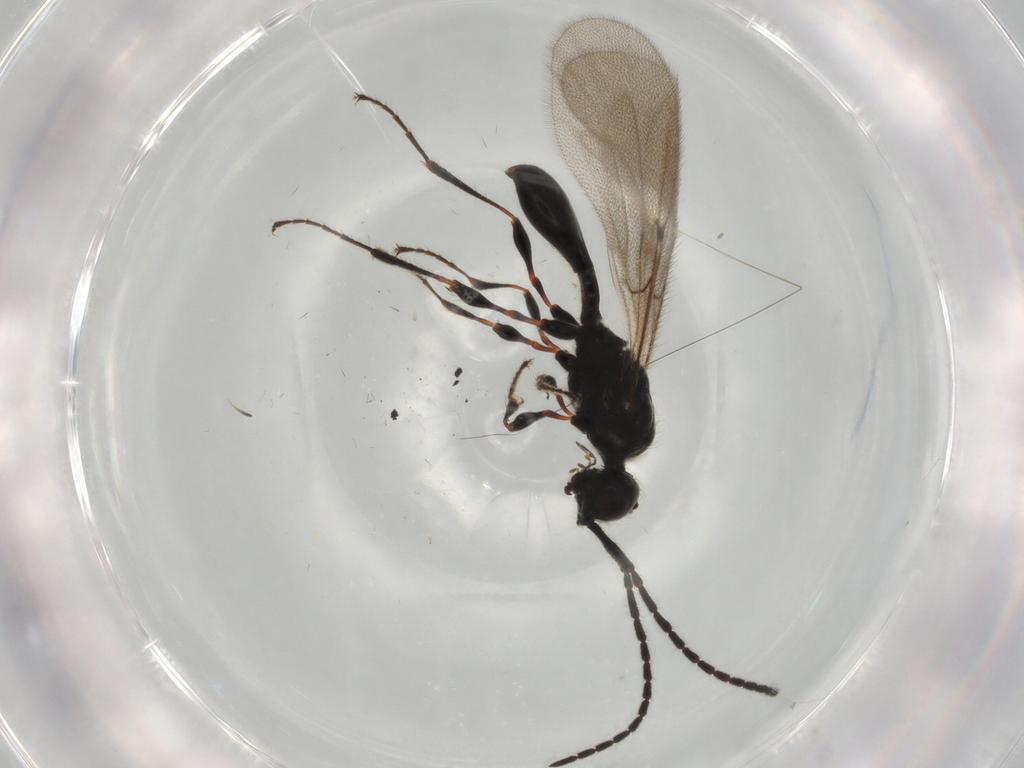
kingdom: Animalia
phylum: Arthropoda
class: Insecta
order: Hymenoptera
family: Diapriidae
